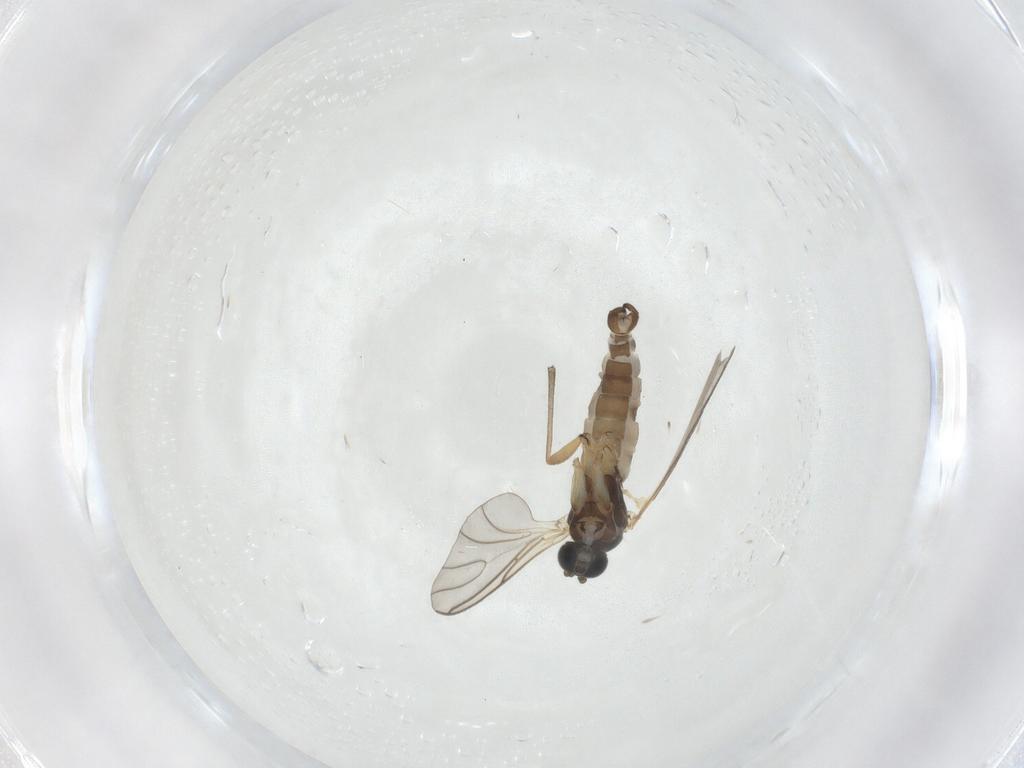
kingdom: Animalia
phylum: Arthropoda
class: Insecta
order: Diptera
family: Sciaridae
